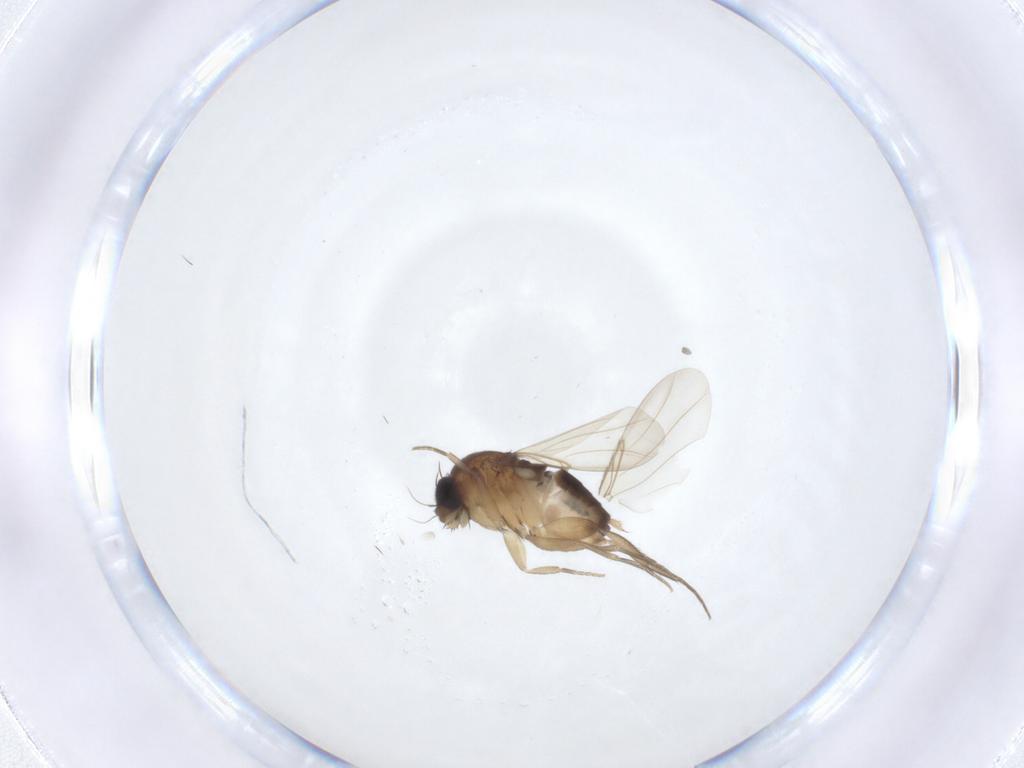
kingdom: Animalia
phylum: Arthropoda
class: Insecta
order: Diptera
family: Phoridae
